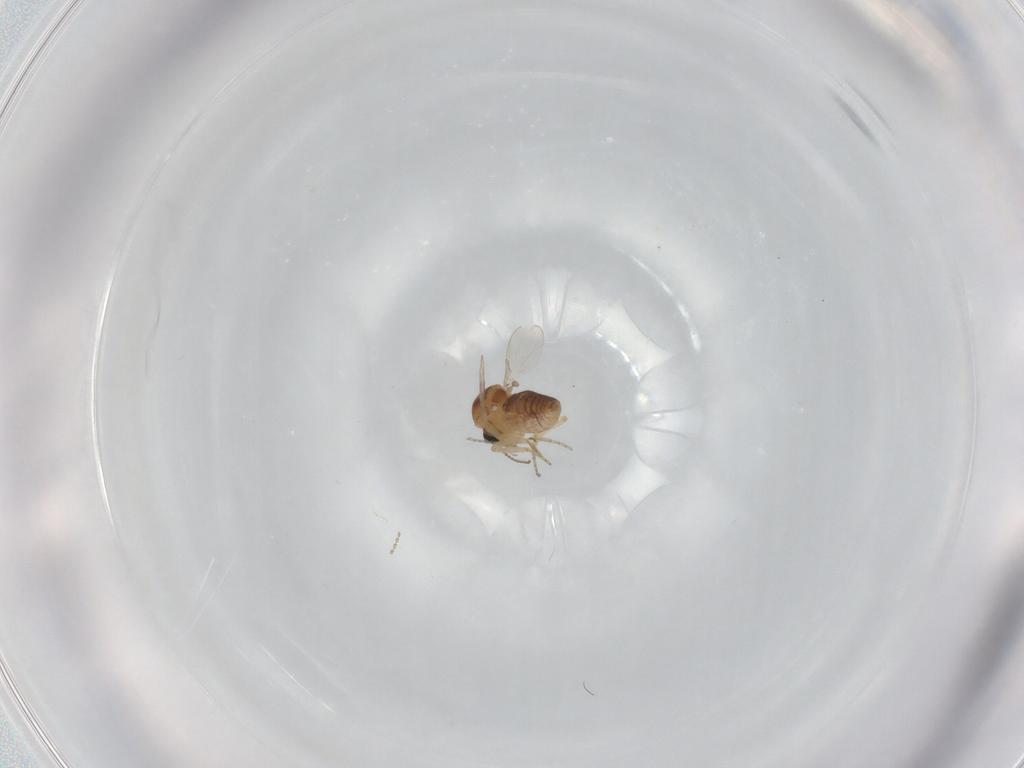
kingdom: Animalia
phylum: Arthropoda
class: Insecta
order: Diptera
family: Ceratopogonidae
